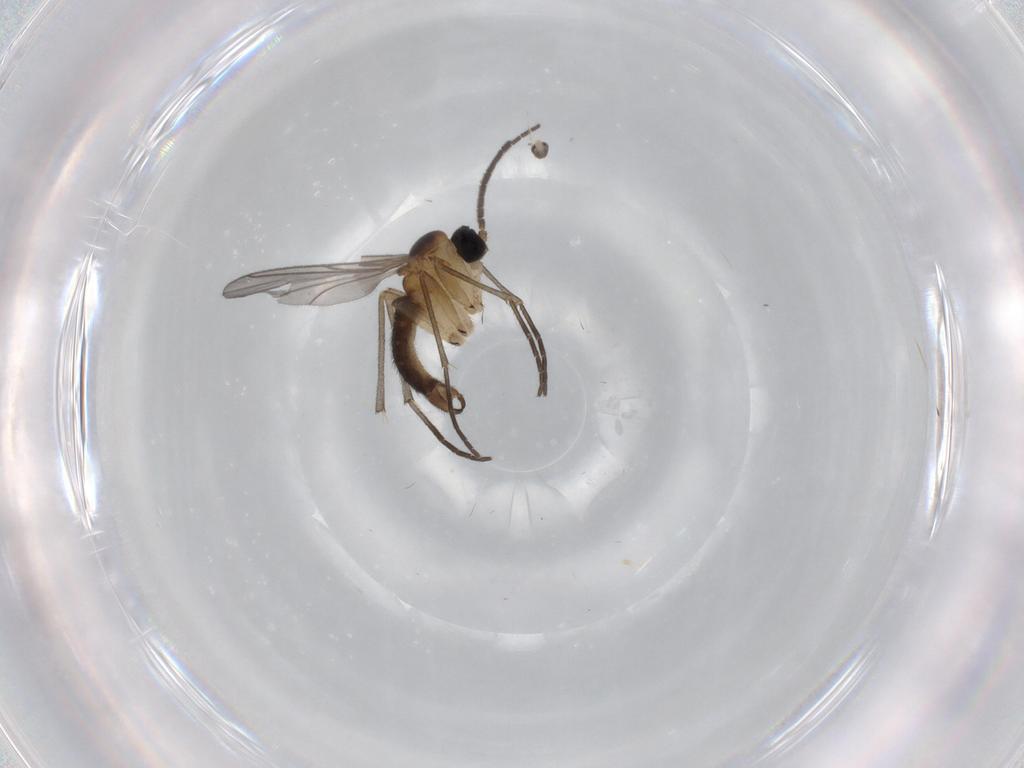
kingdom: Animalia
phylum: Arthropoda
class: Insecta
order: Diptera
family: Sciaridae
